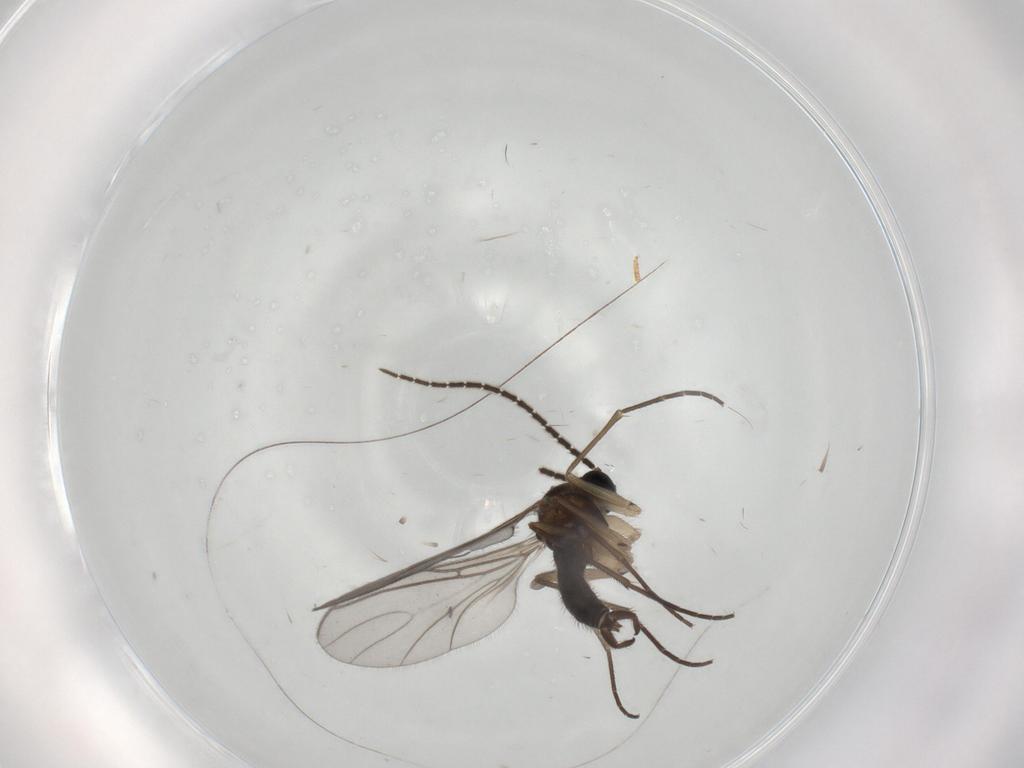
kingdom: Animalia
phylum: Arthropoda
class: Insecta
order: Diptera
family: Sciaridae
